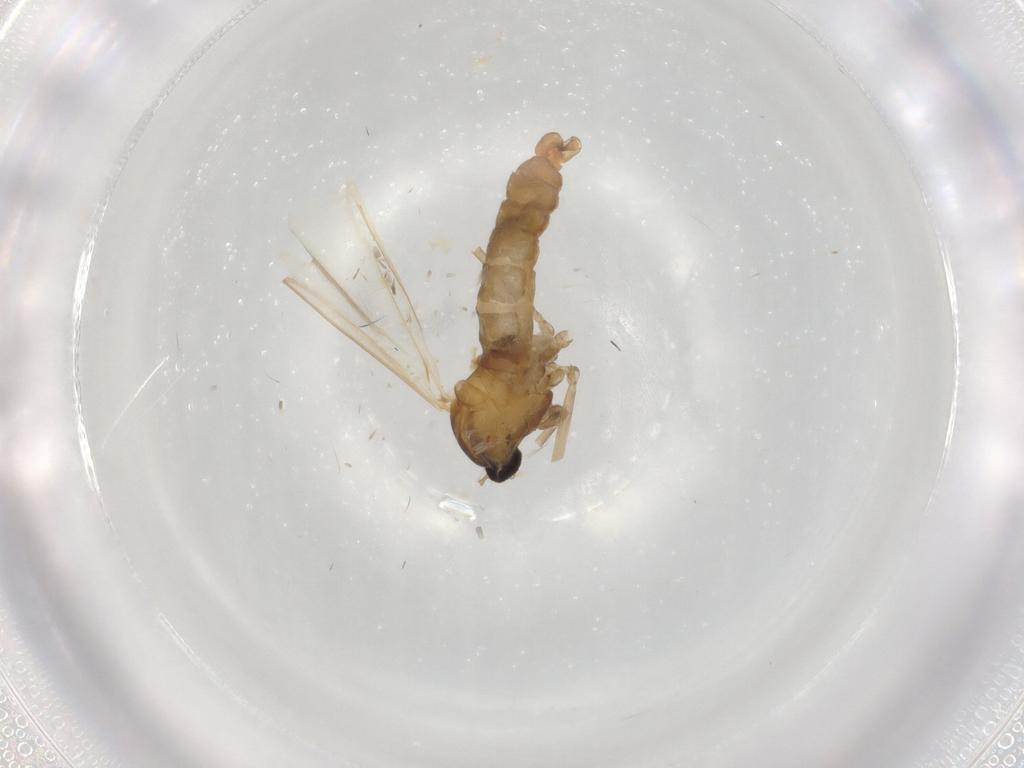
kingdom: Animalia
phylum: Arthropoda
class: Insecta
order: Diptera
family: Cecidomyiidae
